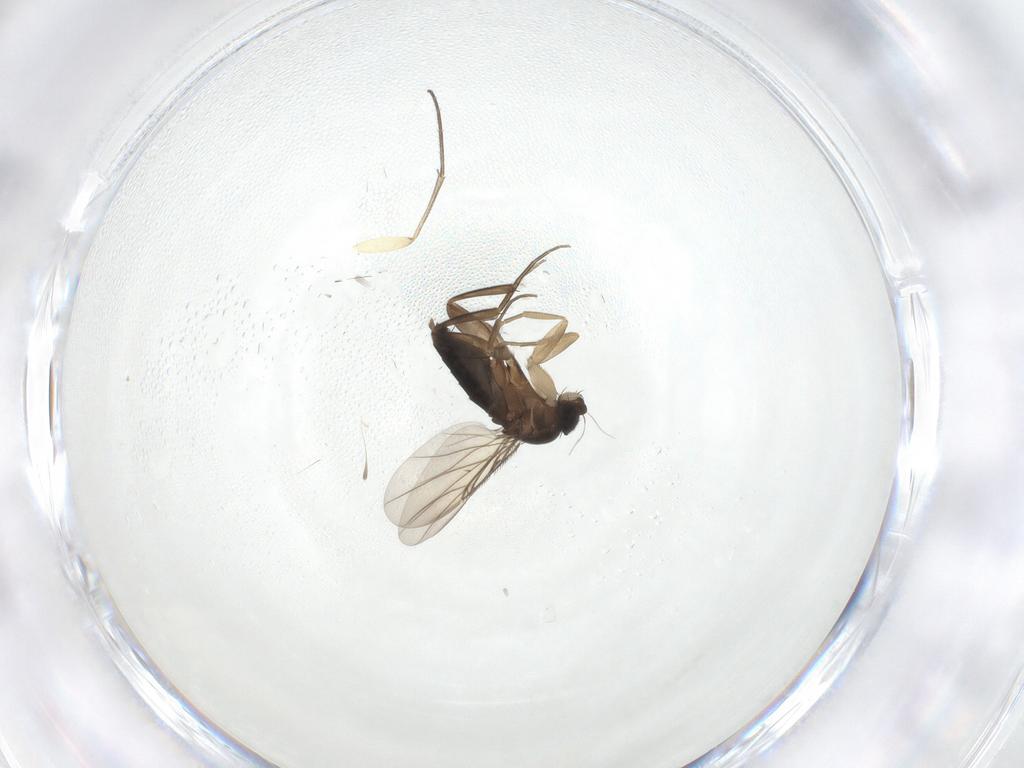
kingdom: Animalia
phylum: Arthropoda
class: Insecta
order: Diptera
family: Phoridae
